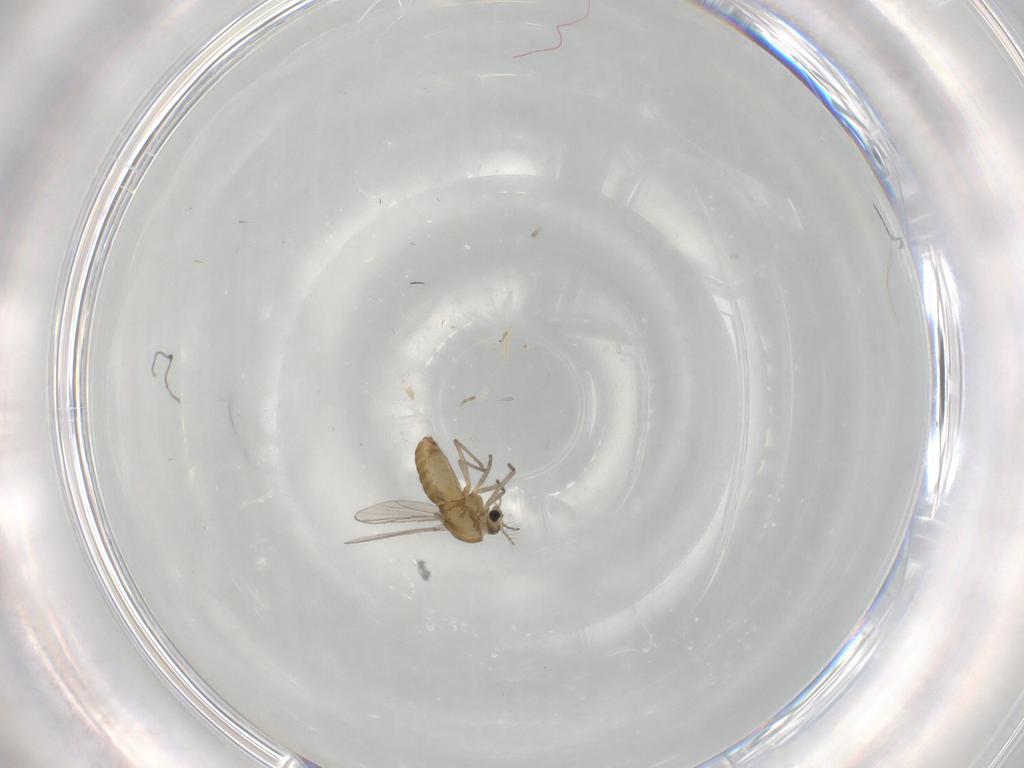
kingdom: Animalia
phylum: Arthropoda
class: Insecta
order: Diptera
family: Chironomidae
